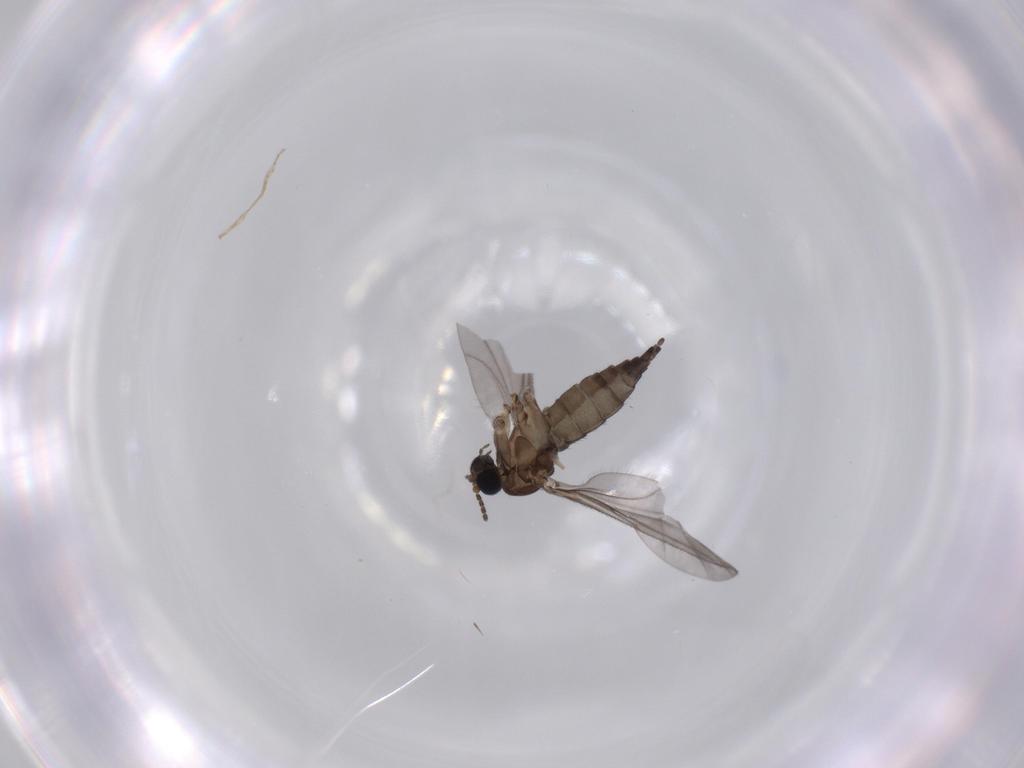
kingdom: Animalia
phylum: Arthropoda
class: Insecta
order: Diptera
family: Sciaridae
